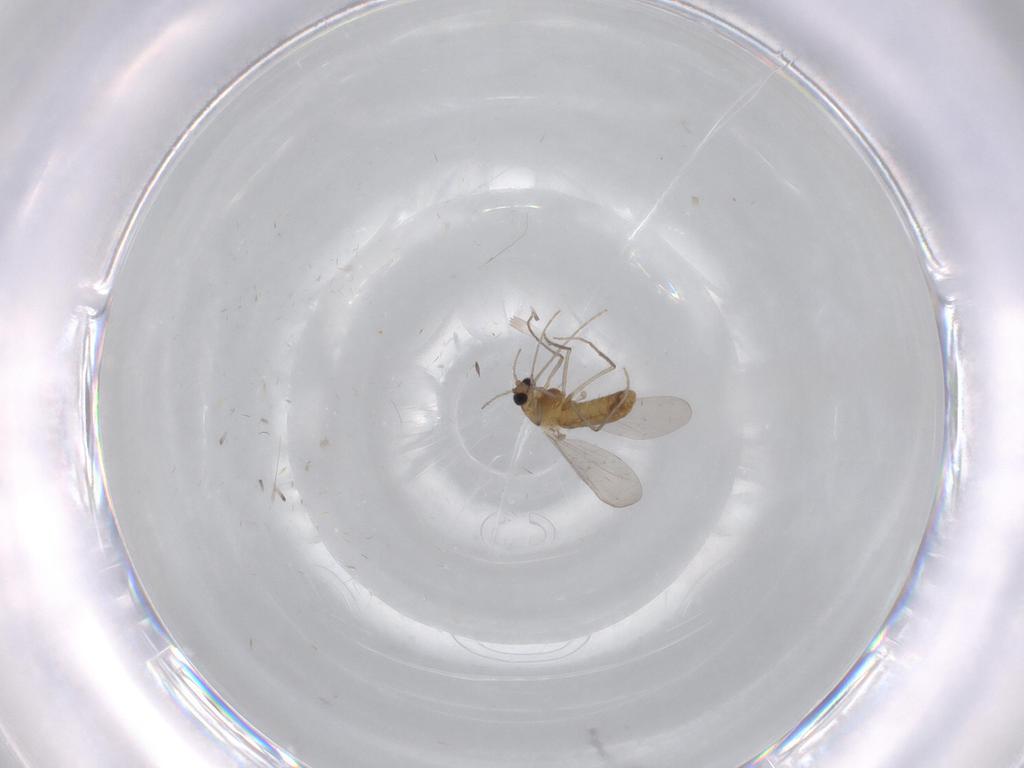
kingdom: Animalia
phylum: Arthropoda
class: Insecta
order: Diptera
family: Chironomidae
